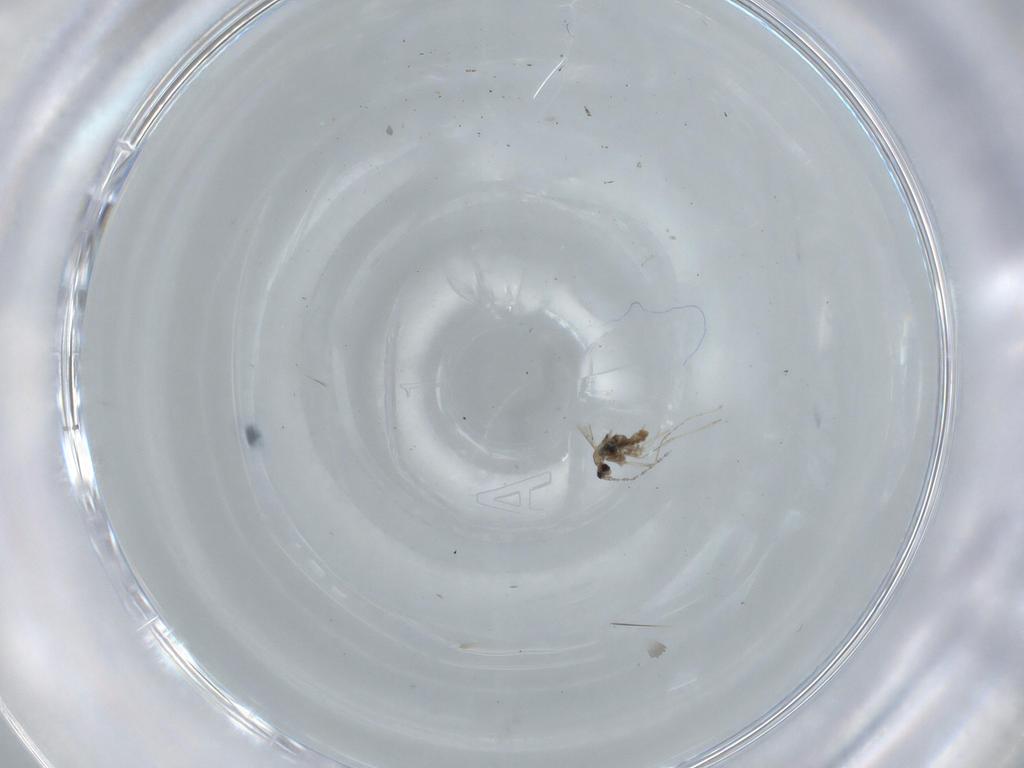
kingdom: Animalia
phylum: Arthropoda
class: Insecta
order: Diptera
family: Cecidomyiidae
